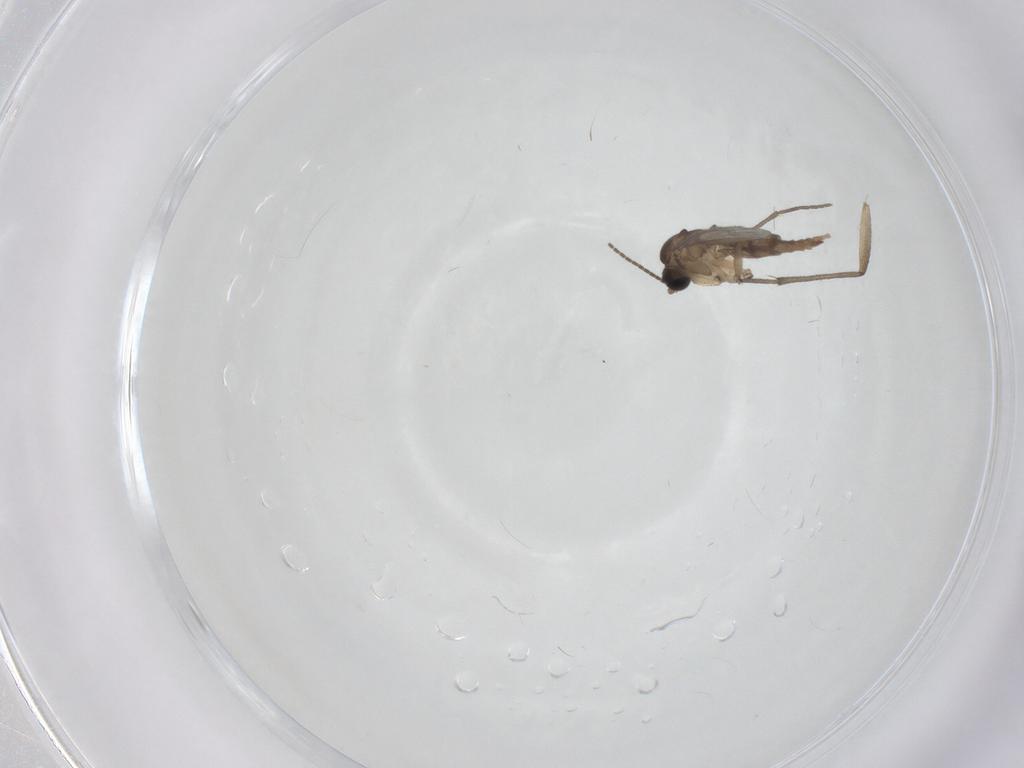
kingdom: Animalia
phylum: Arthropoda
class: Insecta
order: Diptera
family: Sciaridae
